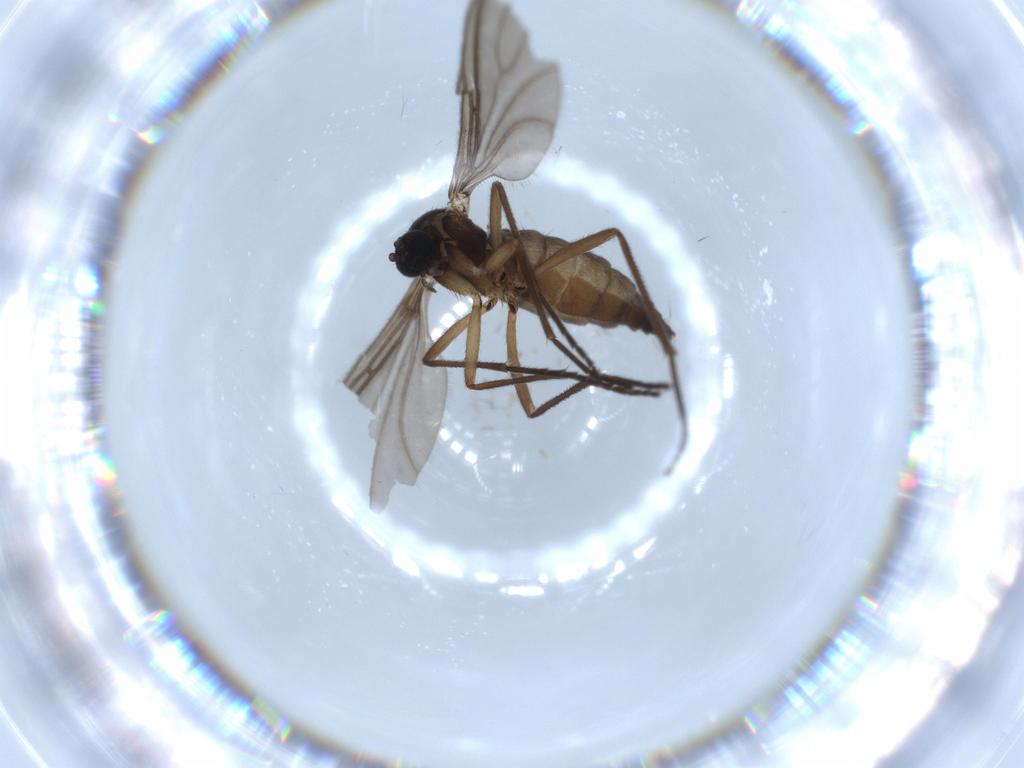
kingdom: Animalia
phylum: Arthropoda
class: Insecta
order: Diptera
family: Sciaridae
